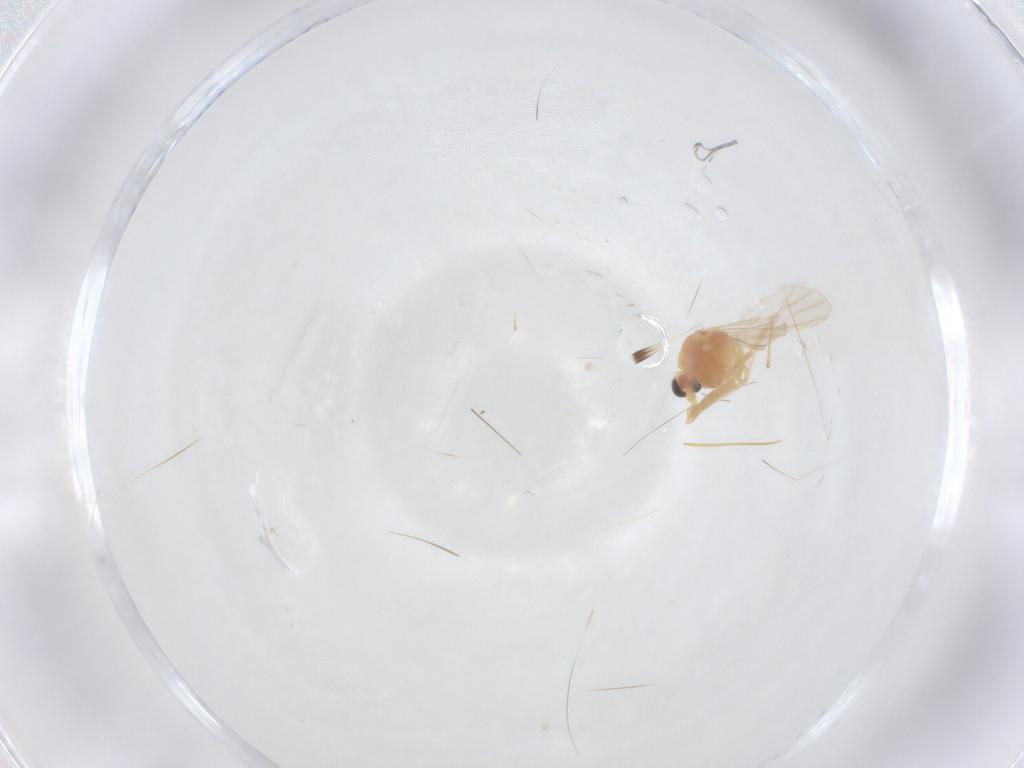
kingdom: Animalia
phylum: Arthropoda
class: Insecta
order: Diptera
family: Chironomidae
